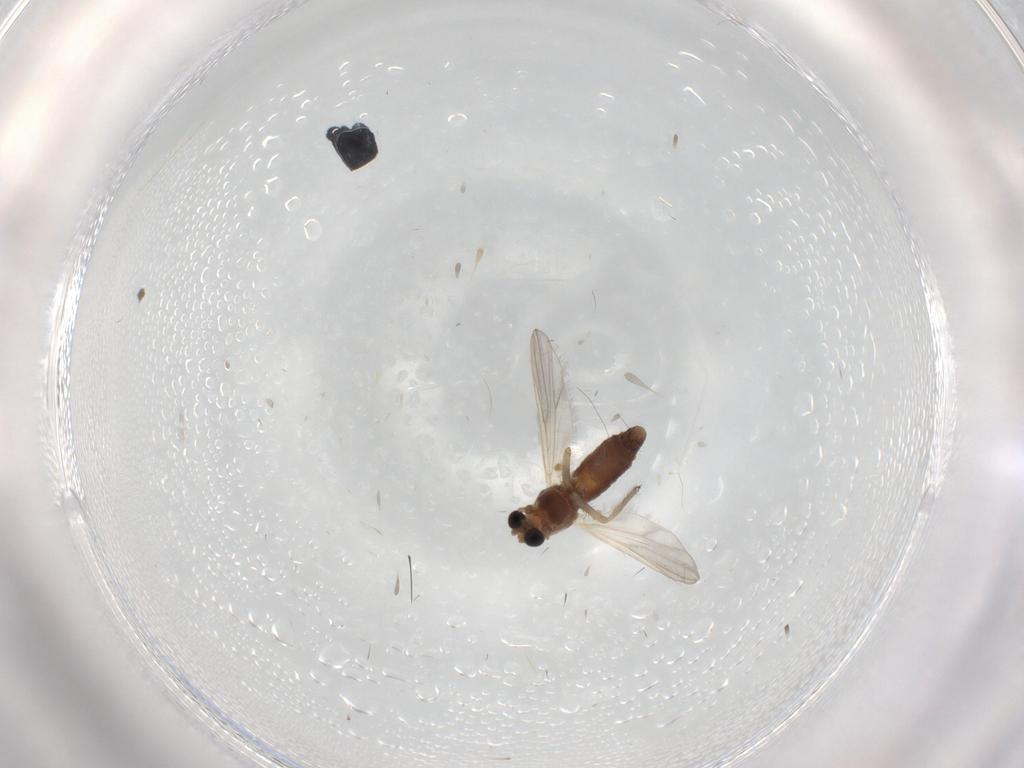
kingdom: Animalia
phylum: Arthropoda
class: Insecta
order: Diptera
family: Chironomidae
